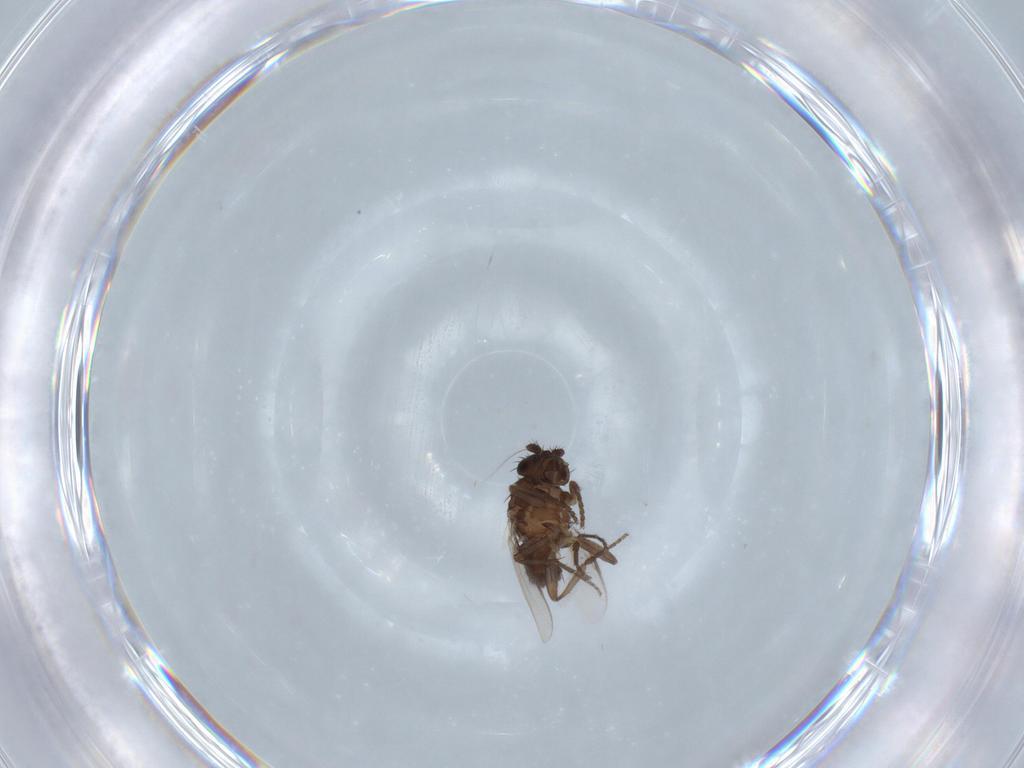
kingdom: Animalia
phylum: Arthropoda
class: Insecta
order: Diptera
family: Sphaeroceridae
